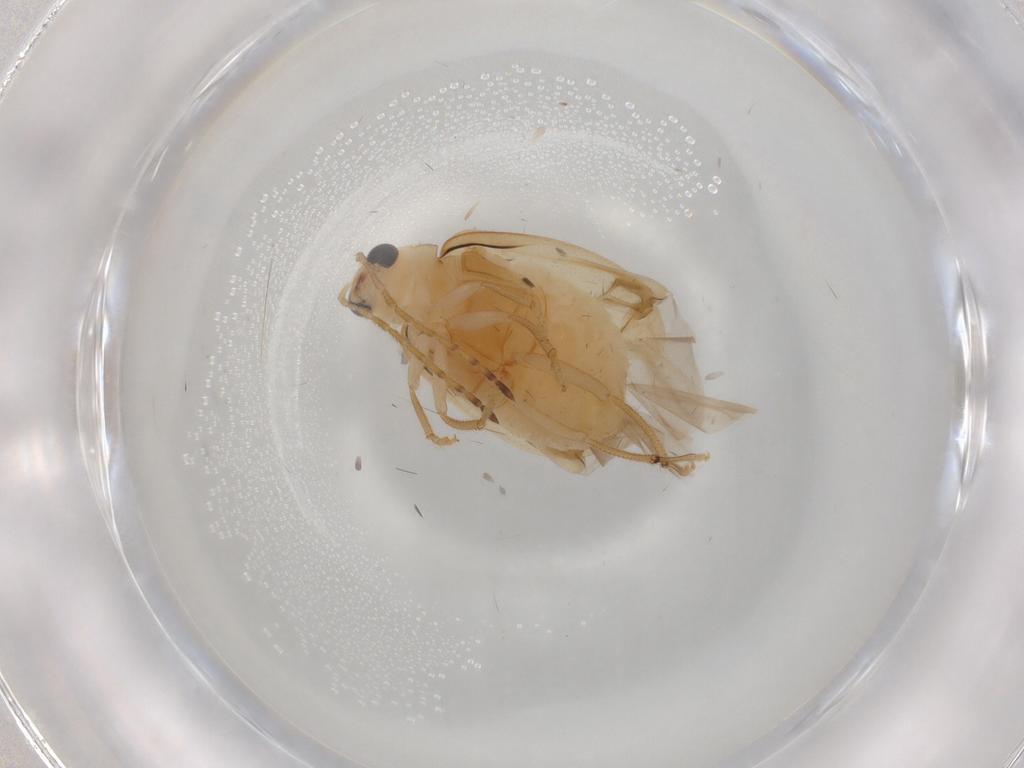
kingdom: Animalia
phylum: Arthropoda
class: Insecta
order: Coleoptera
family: Chrysomelidae
